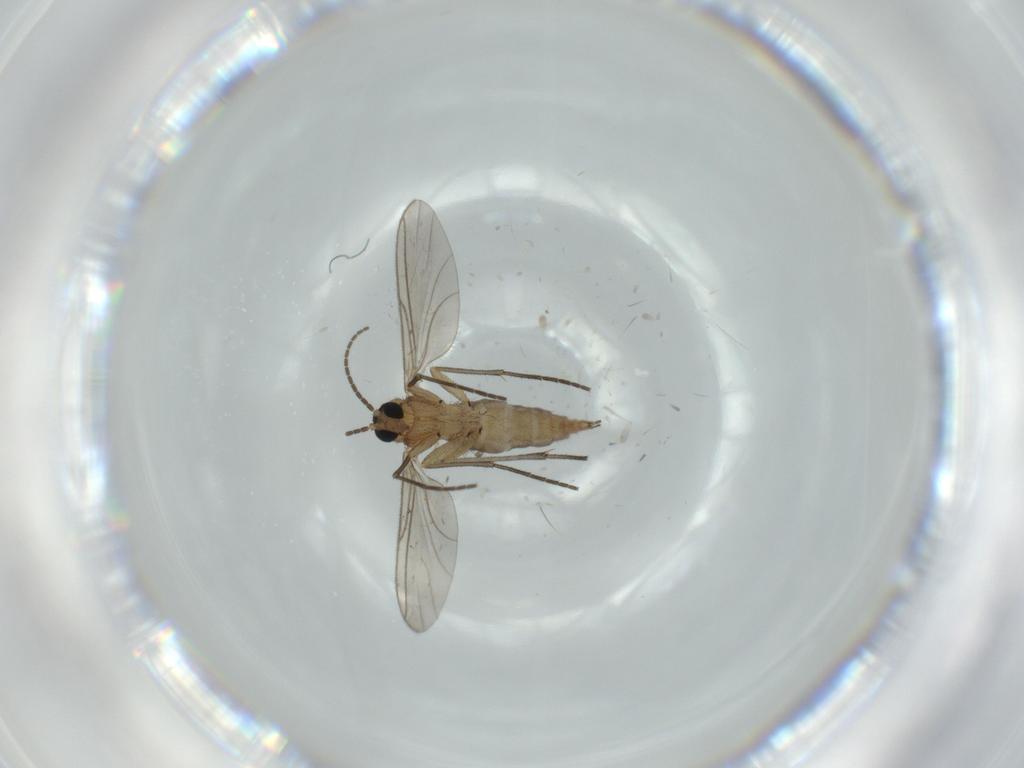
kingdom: Animalia
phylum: Arthropoda
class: Insecta
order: Diptera
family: Sciaridae
